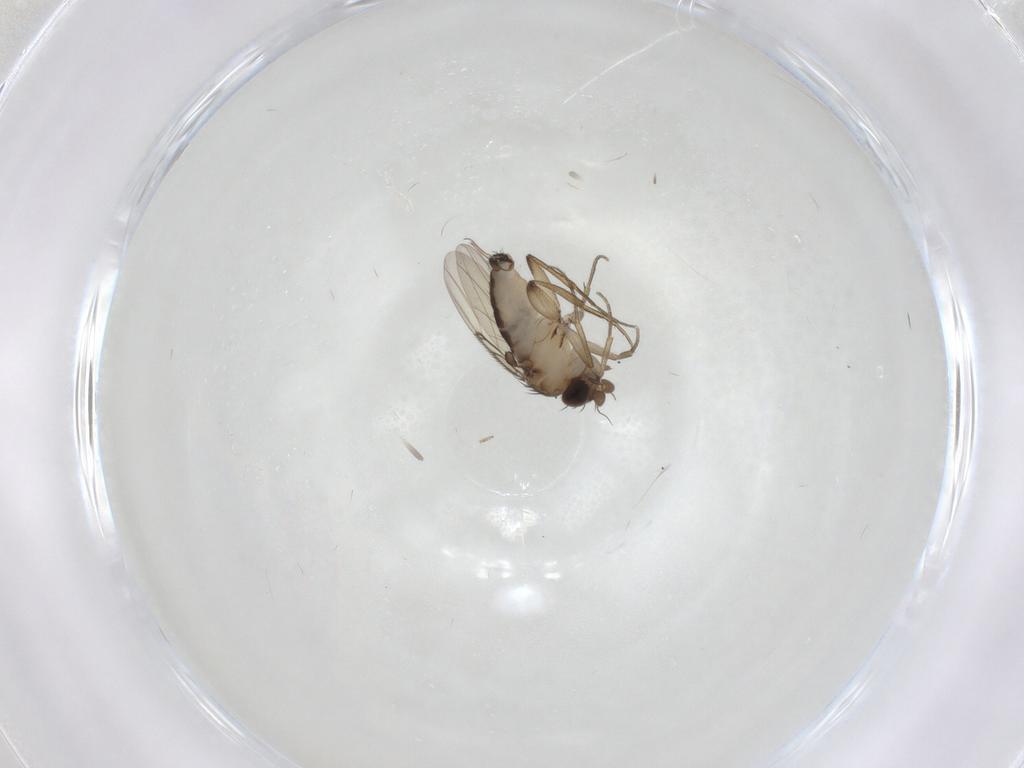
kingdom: Animalia
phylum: Arthropoda
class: Insecta
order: Diptera
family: Phoridae
